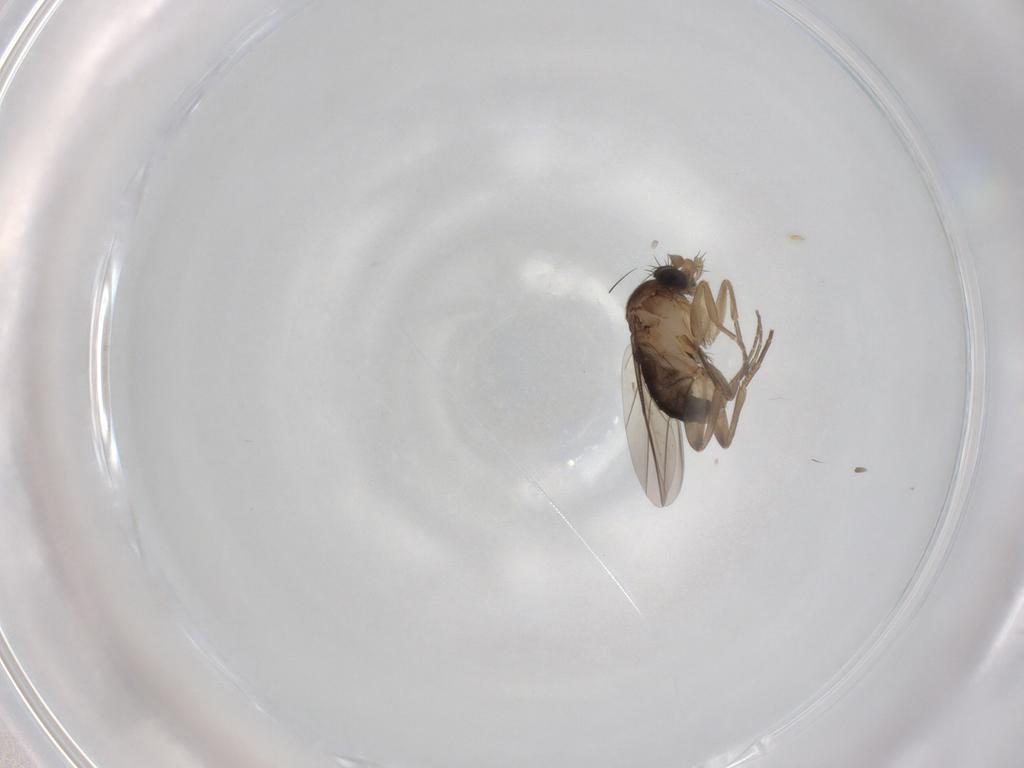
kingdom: Animalia
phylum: Arthropoda
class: Insecta
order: Diptera
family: Phoridae
